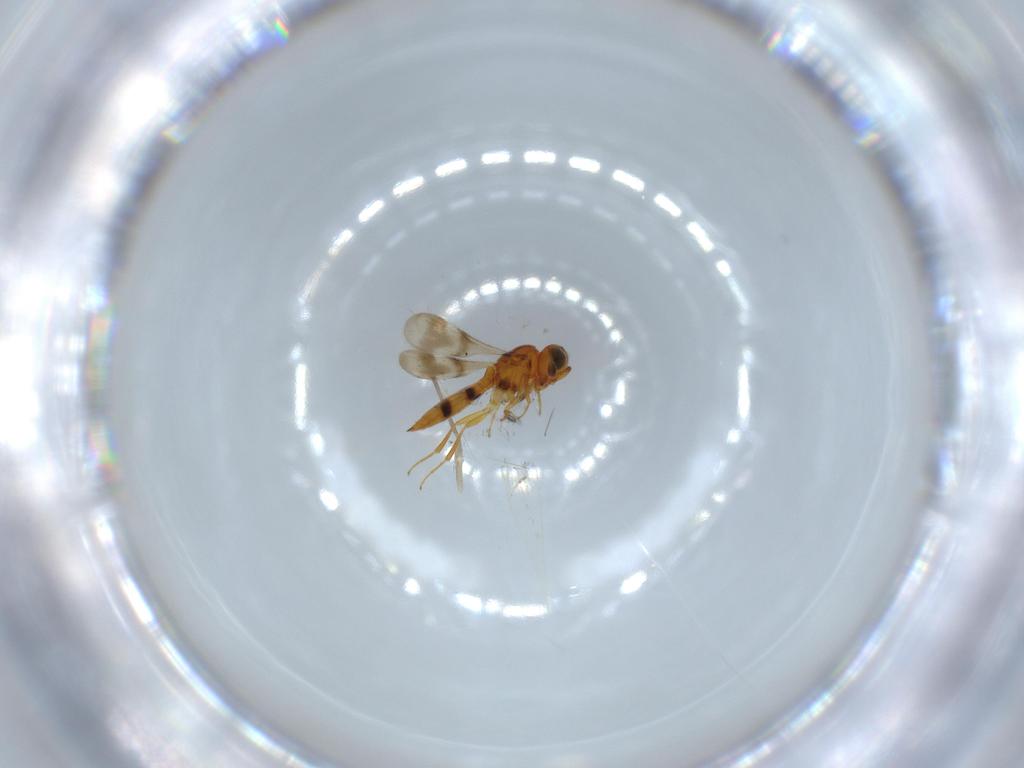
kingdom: Animalia
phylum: Arthropoda
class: Insecta
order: Hymenoptera
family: Scelionidae
